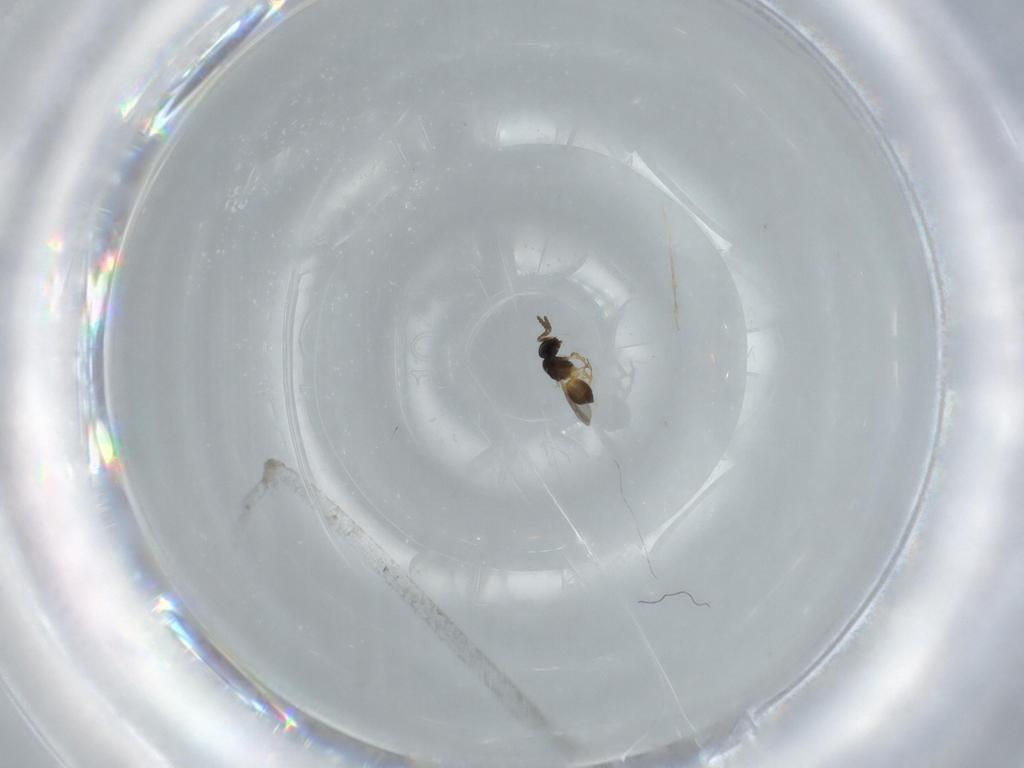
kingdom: Animalia
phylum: Arthropoda
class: Insecta
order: Hymenoptera
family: Scelionidae
